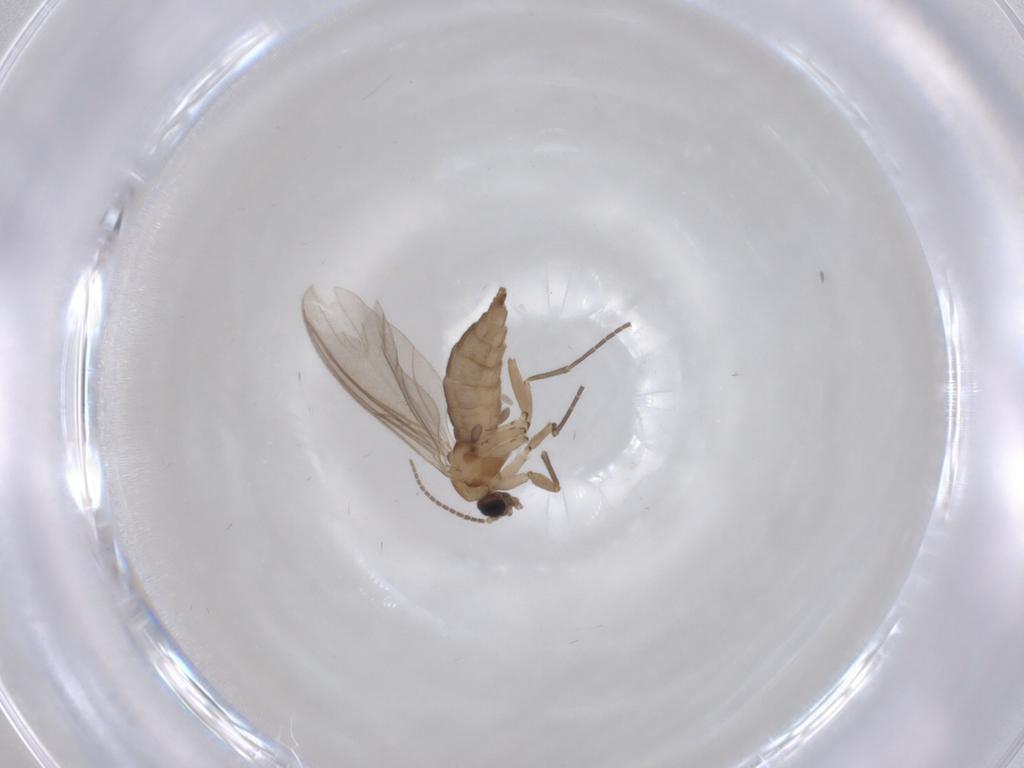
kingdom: Animalia
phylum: Arthropoda
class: Insecta
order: Diptera
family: Sciaridae
